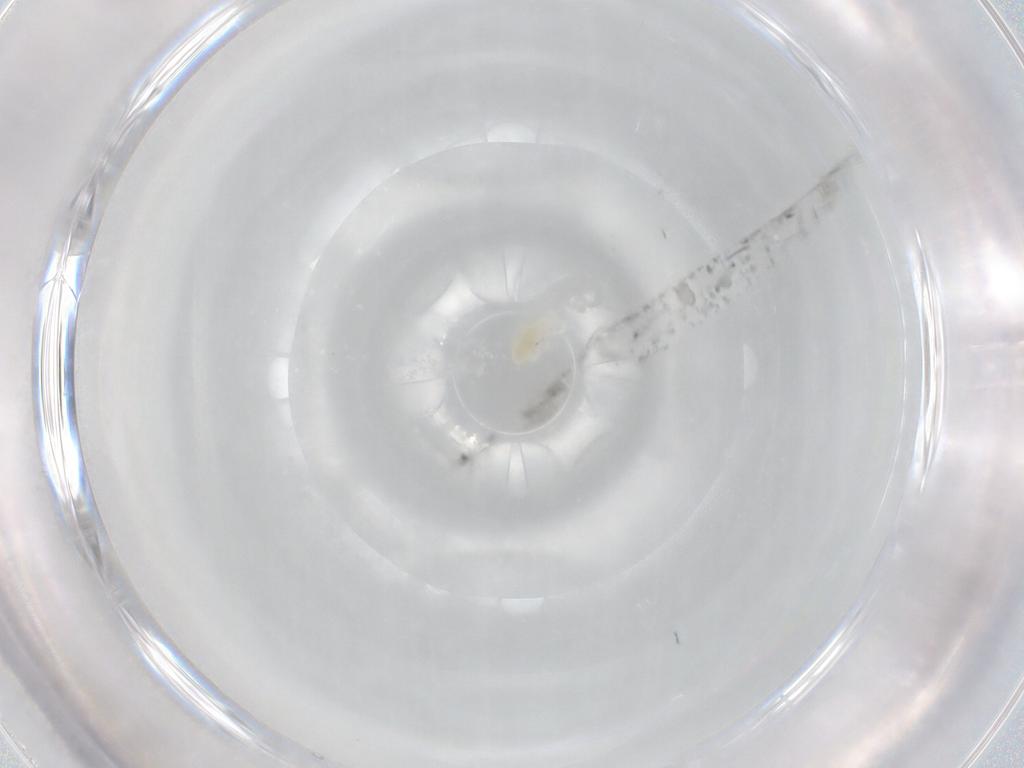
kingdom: Animalia
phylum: Arthropoda
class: Arachnida
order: Trombidiformes
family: Rhagidiidae
